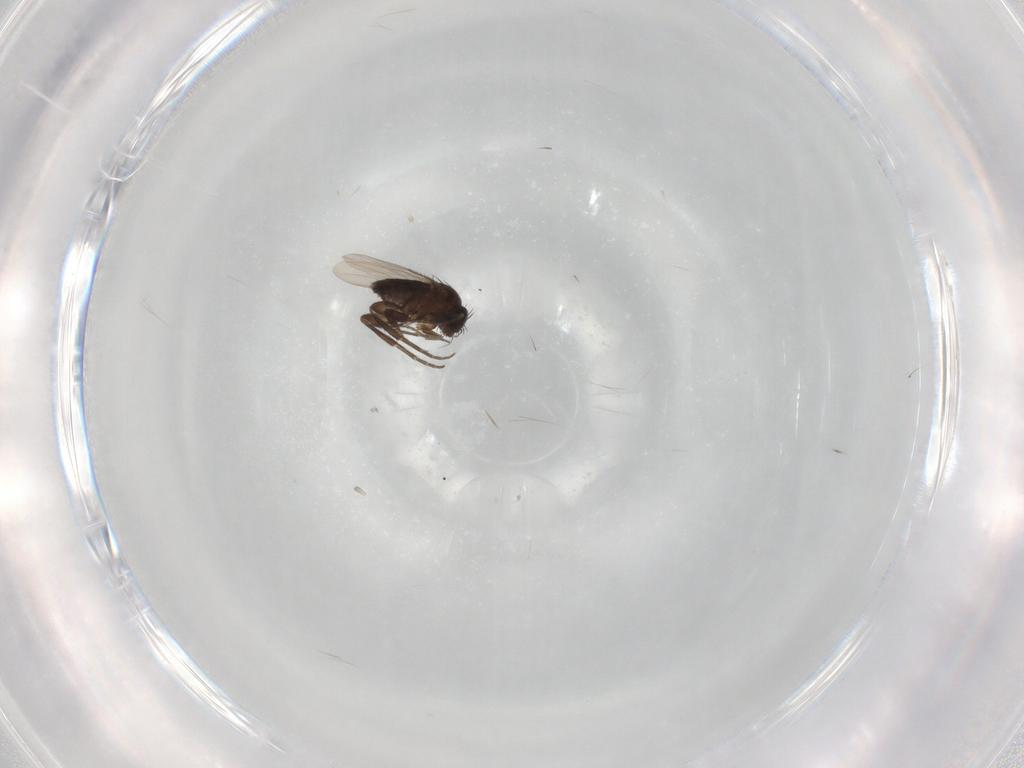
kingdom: Animalia
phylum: Arthropoda
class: Insecta
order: Diptera
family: Phoridae
